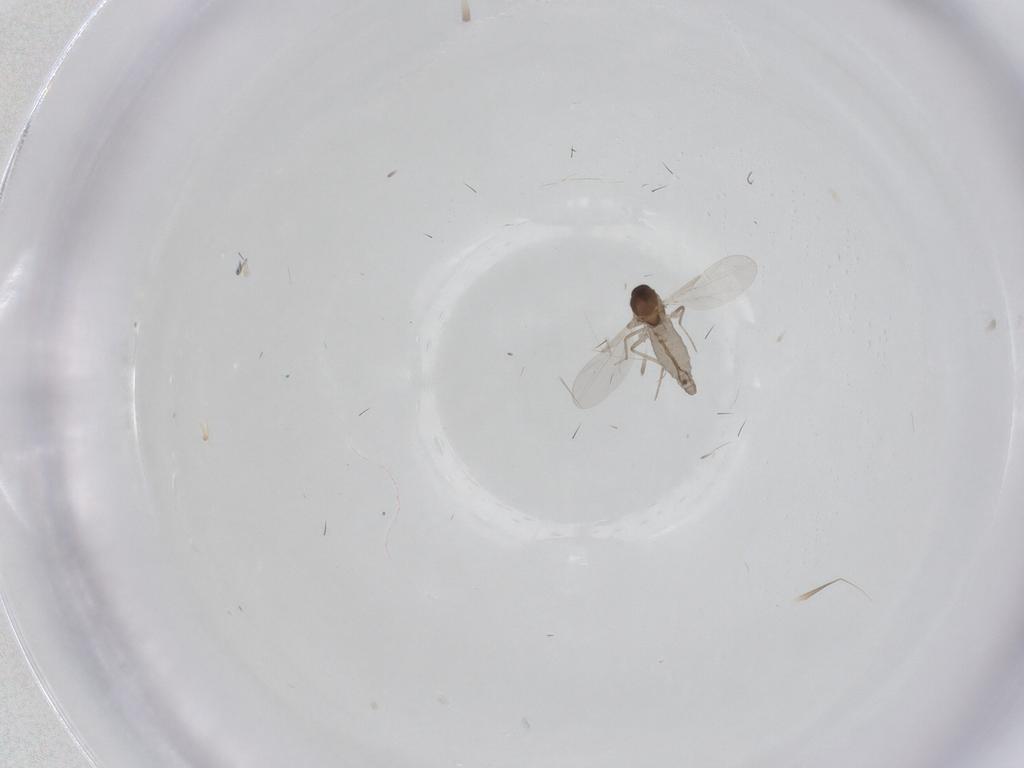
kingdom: Animalia
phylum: Arthropoda
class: Insecta
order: Diptera
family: Ceratopogonidae
